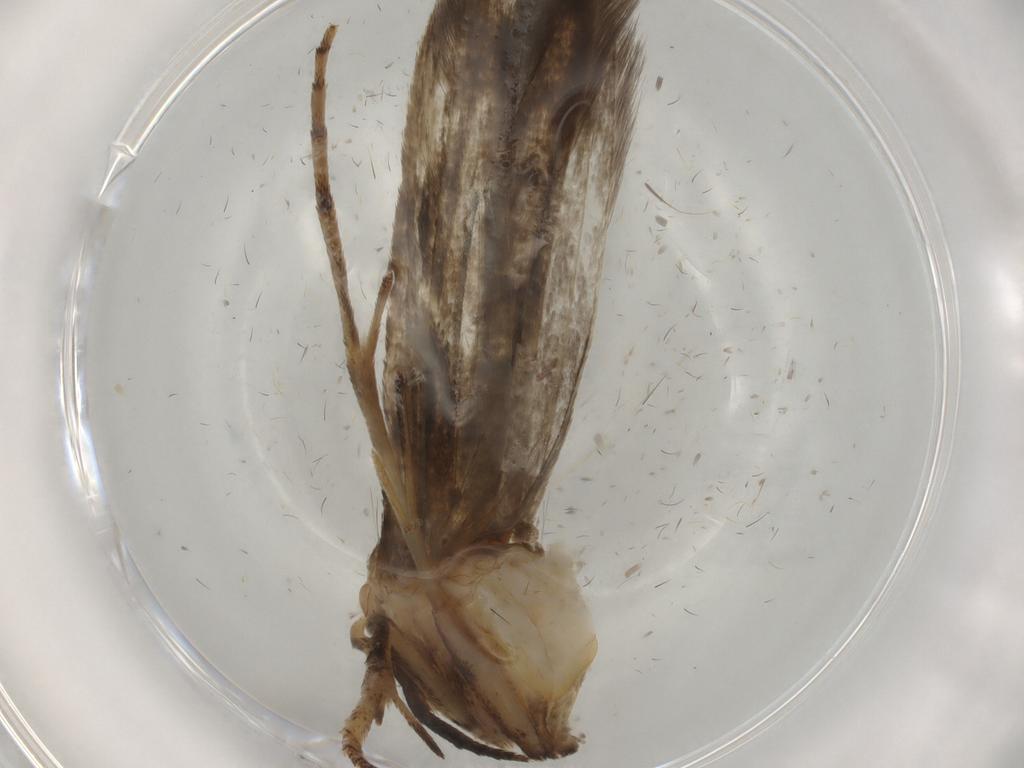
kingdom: Animalia
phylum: Arthropoda
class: Insecta
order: Lepidoptera
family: Yponomeutidae
